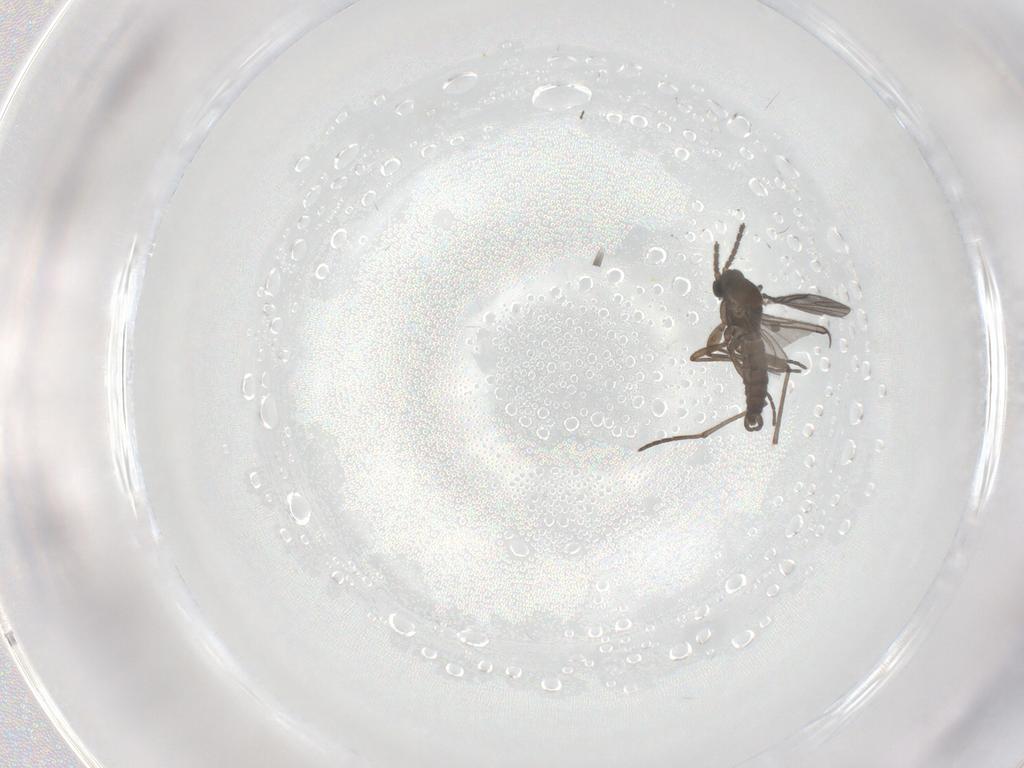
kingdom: Animalia
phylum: Arthropoda
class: Insecta
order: Diptera
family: Sciaridae
